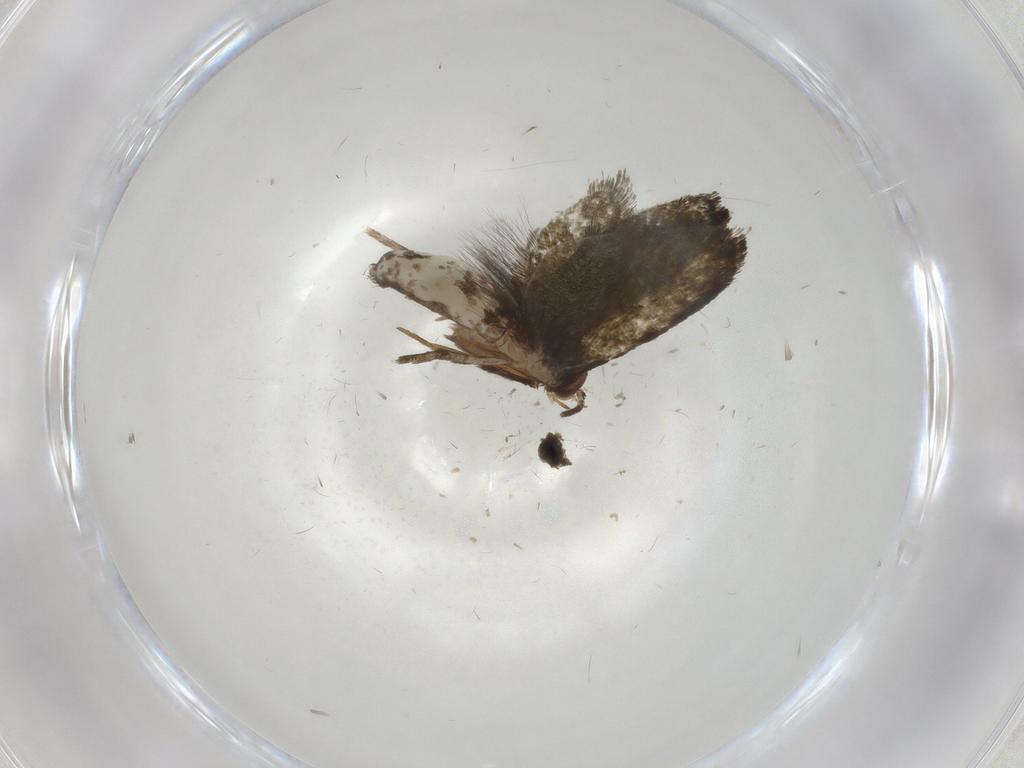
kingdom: Animalia
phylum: Arthropoda
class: Insecta
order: Lepidoptera
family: Tineidae
